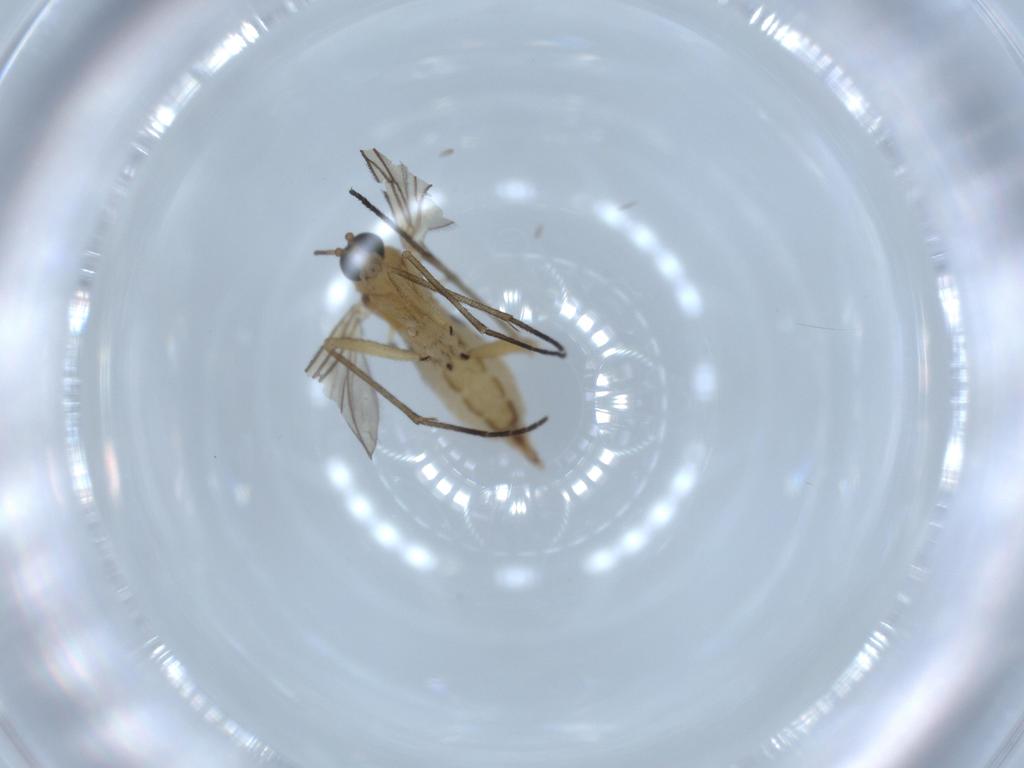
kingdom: Animalia
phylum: Arthropoda
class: Insecta
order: Diptera
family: Sciaridae
